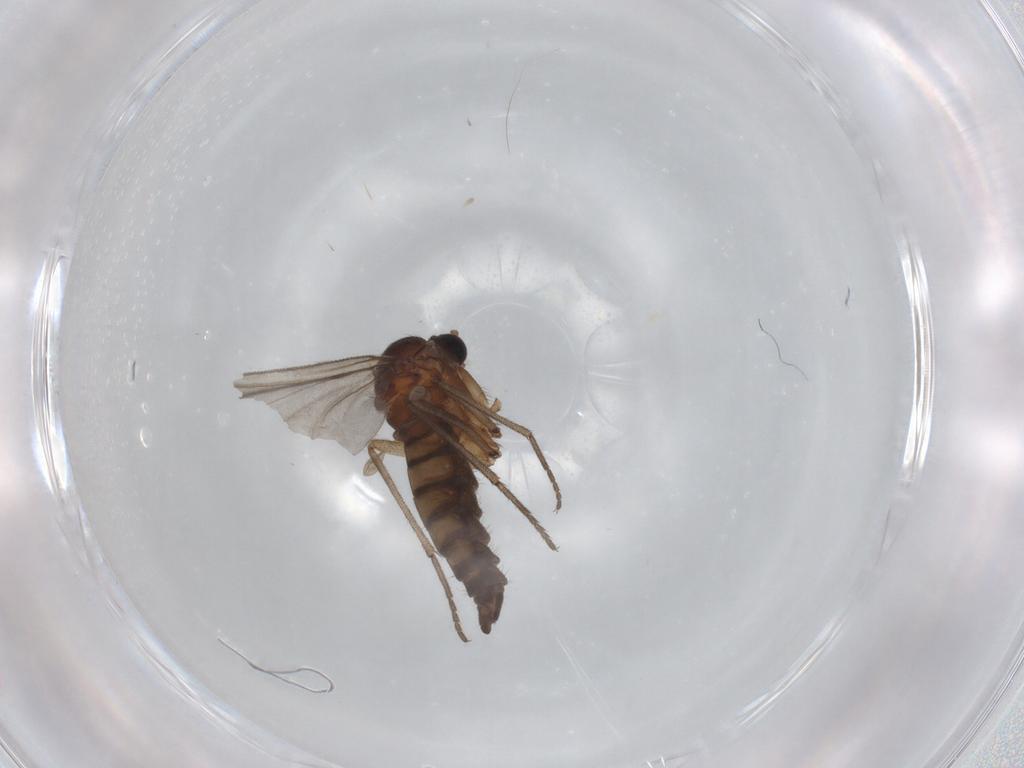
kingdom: Animalia
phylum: Arthropoda
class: Insecta
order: Diptera
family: Sciaridae
